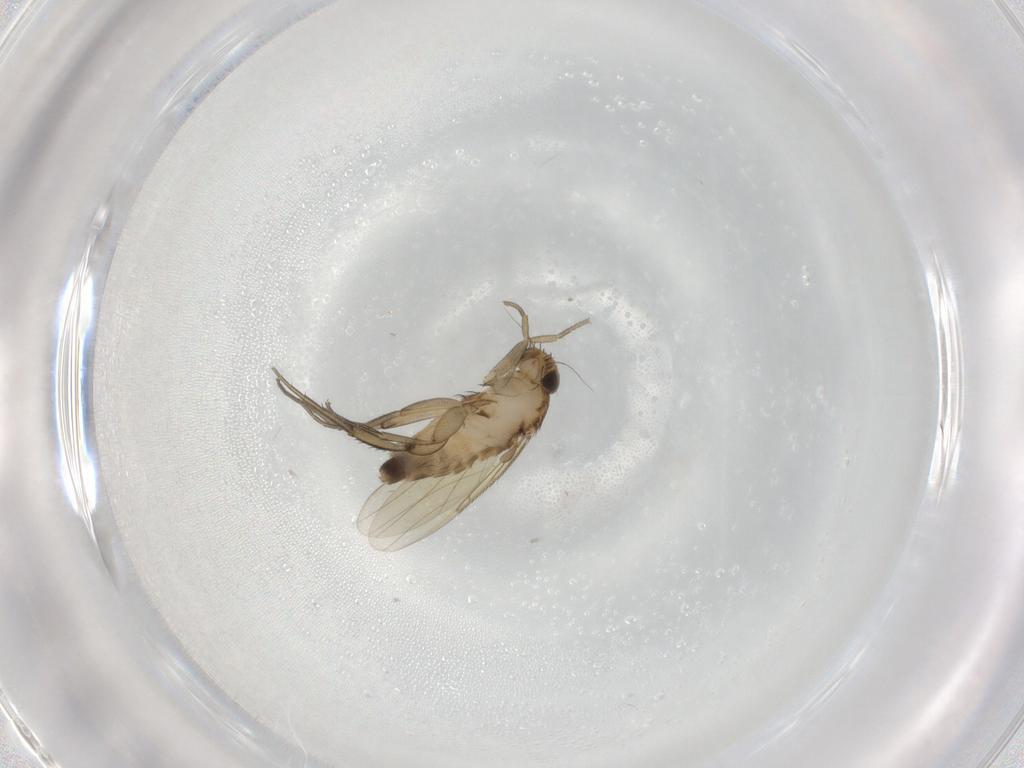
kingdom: Animalia
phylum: Arthropoda
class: Insecta
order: Diptera
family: Phoridae
